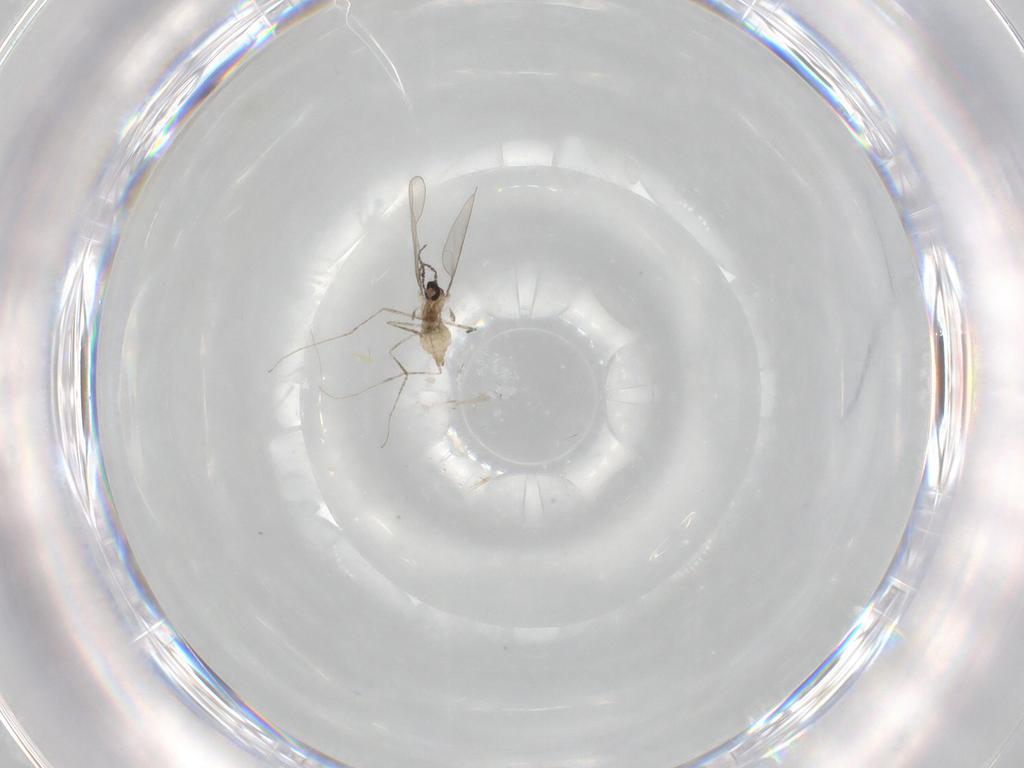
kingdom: Animalia
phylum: Arthropoda
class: Insecta
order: Diptera
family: Cecidomyiidae
